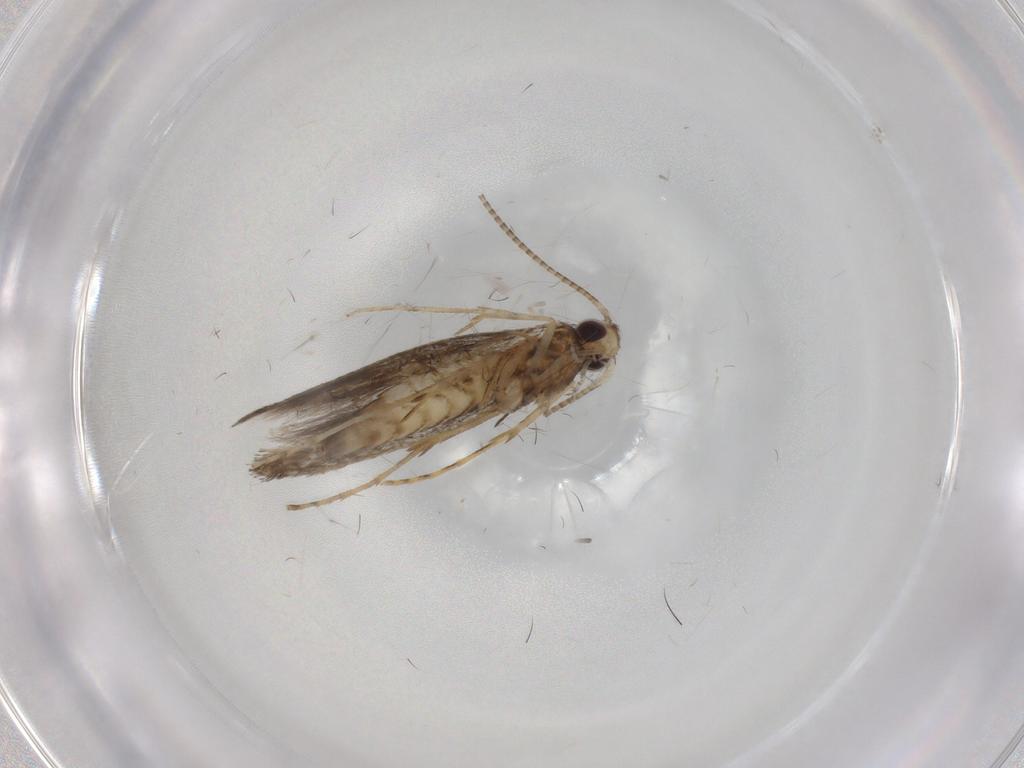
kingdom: Animalia
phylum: Arthropoda
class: Insecta
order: Lepidoptera
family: Gracillariidae
